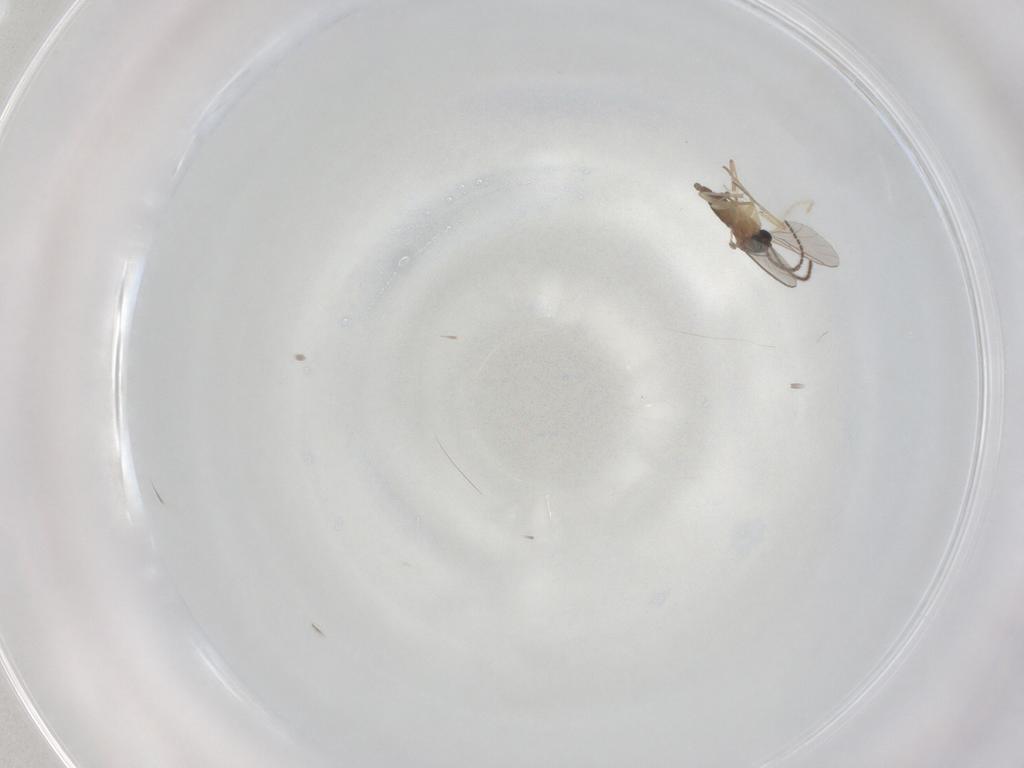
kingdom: Animalia
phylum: Arthropoda
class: Insecta
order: Diptera
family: Sciaridae
